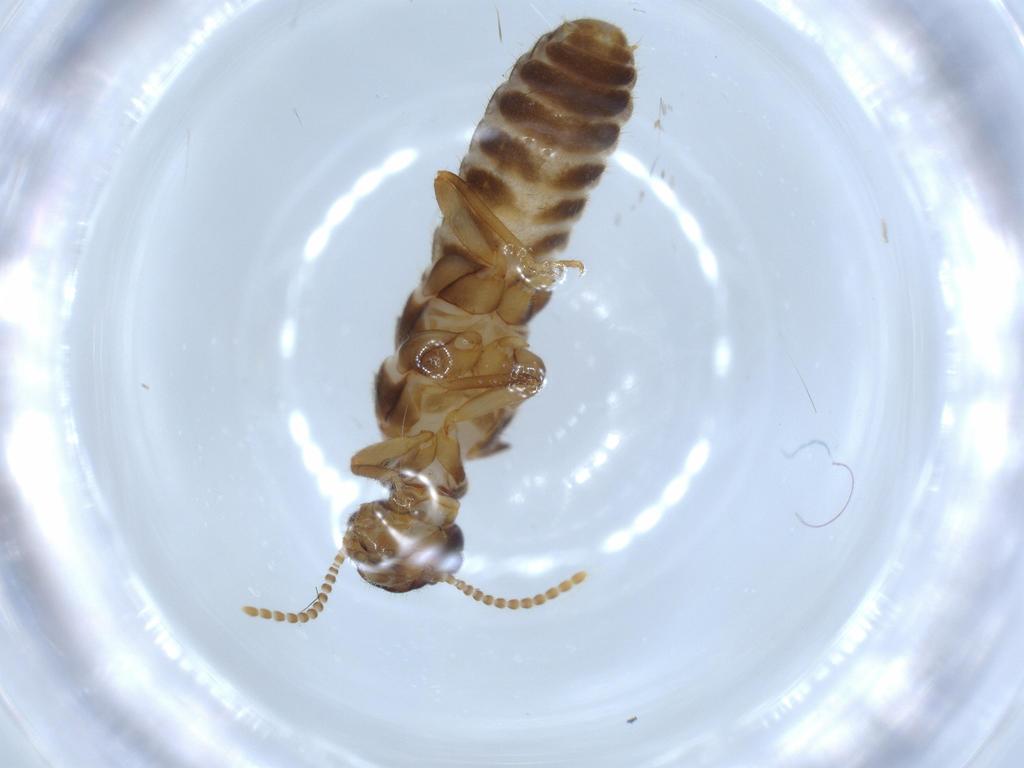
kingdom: Animalia
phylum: Arthropoda
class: Insecta
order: Blattodea
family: Termitidae
